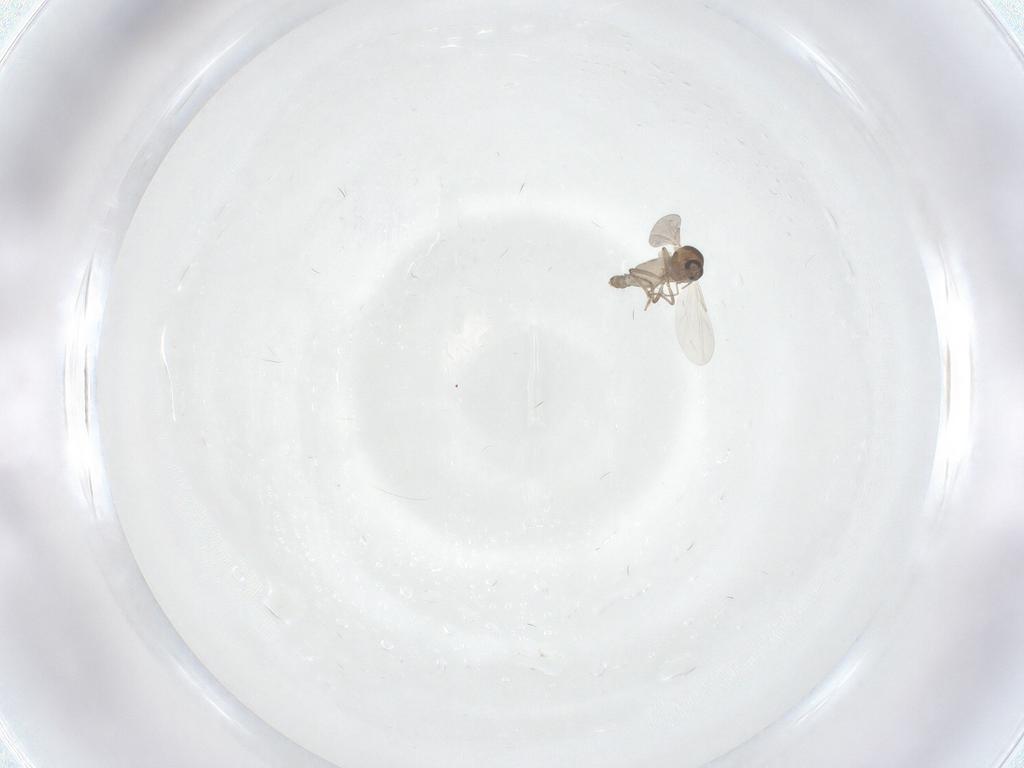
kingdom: Animalia
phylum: Arthropoda
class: Insecta
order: Diptera
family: Ceratopogonidae
